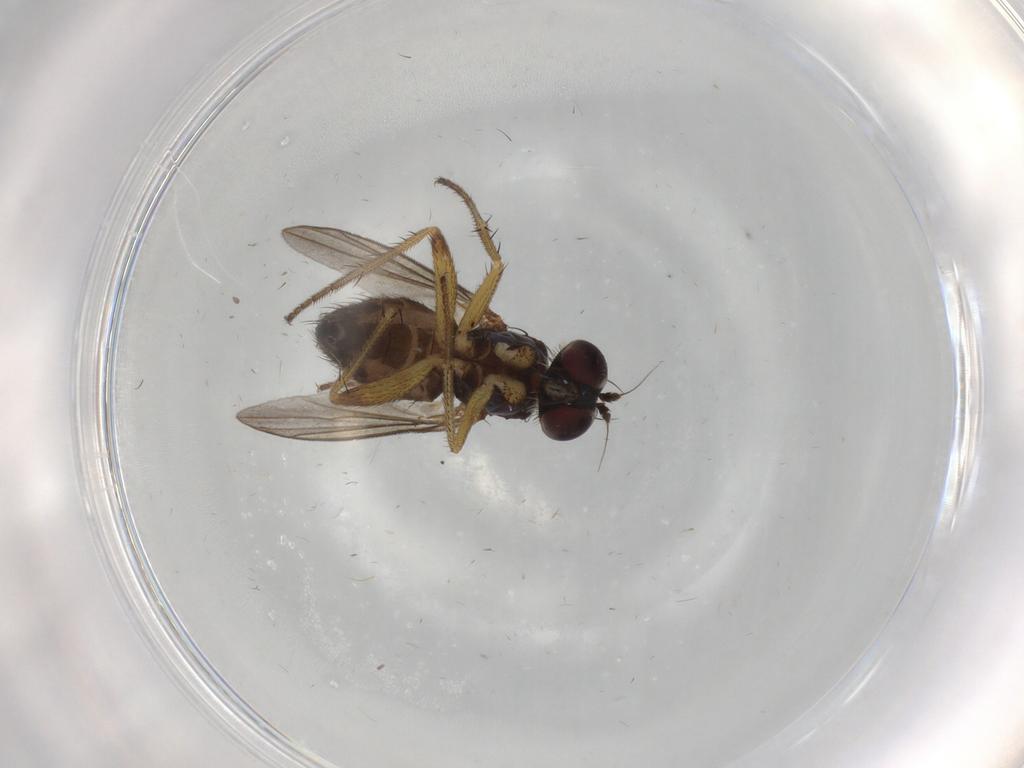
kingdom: Animalia
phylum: Arthropoda
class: Insecta
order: Diptera
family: Dolichopodidae
